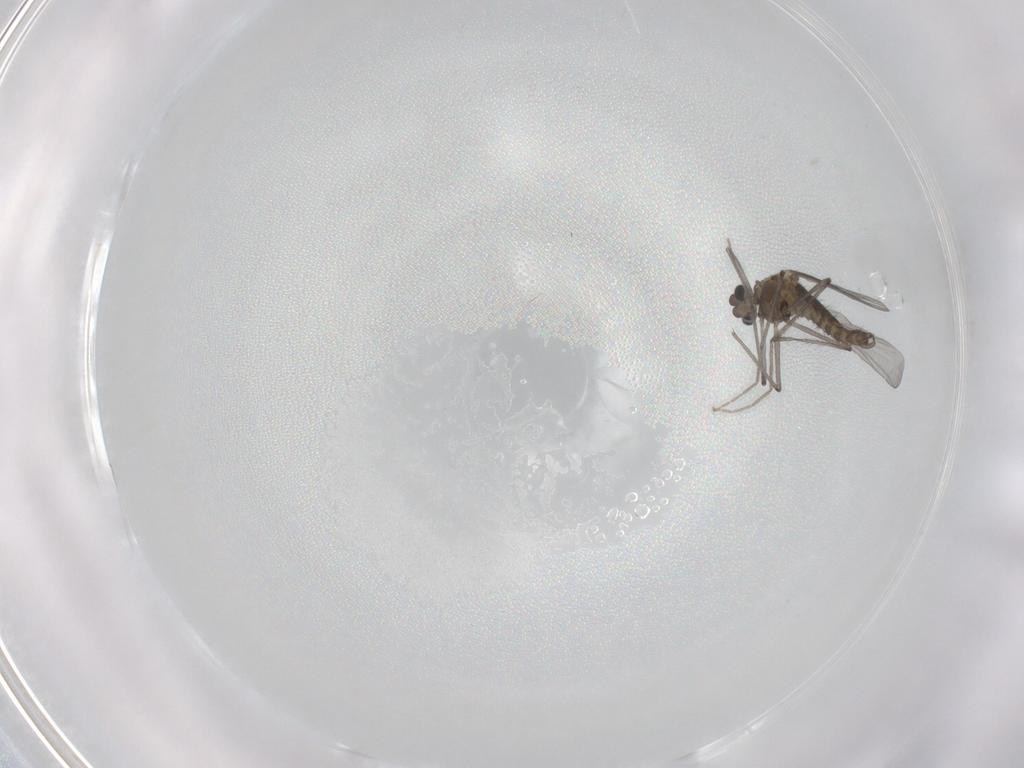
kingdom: Animalia
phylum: Arthropoda
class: Insecta
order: Diptera
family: Chironomidae
